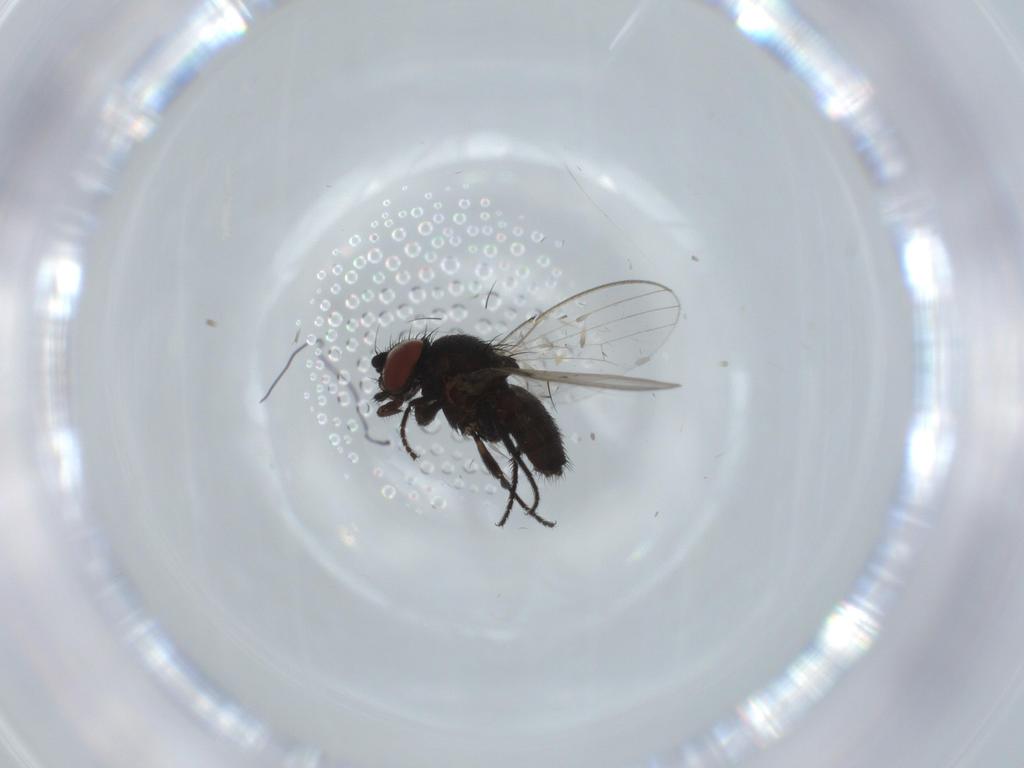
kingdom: Animalia
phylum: Arthropoda
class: Insecta
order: Diptera
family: Milichiidae
